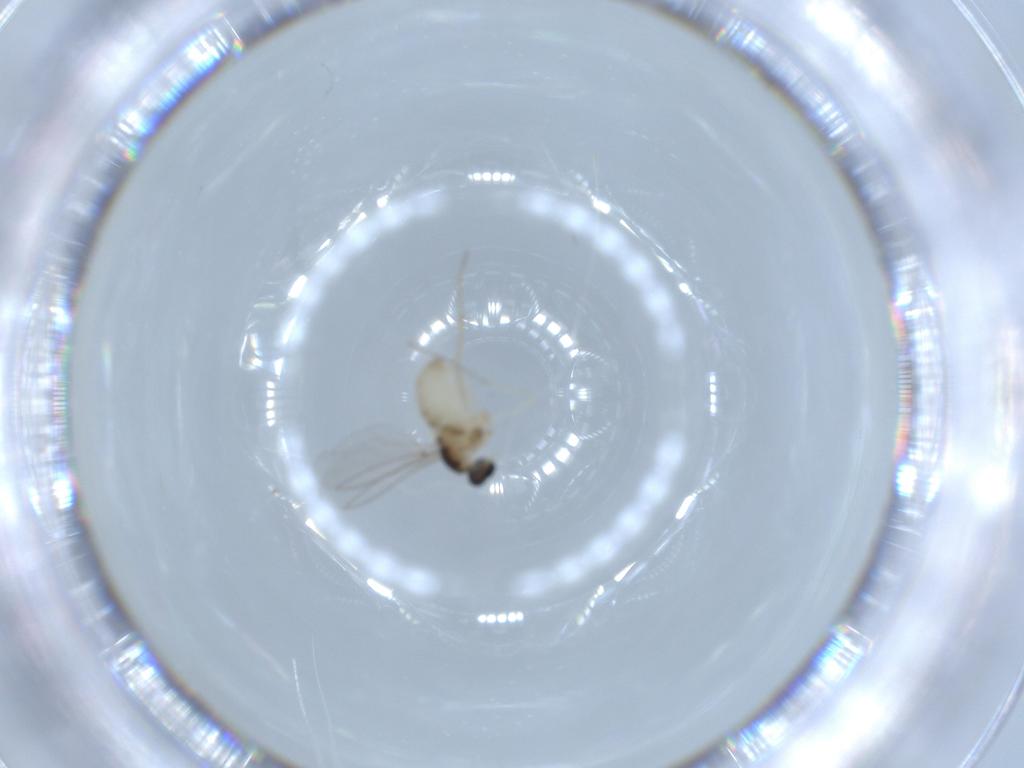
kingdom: Animalia
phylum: Arthropoda
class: Insecta
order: Diptera
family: Cecidomyiidae
